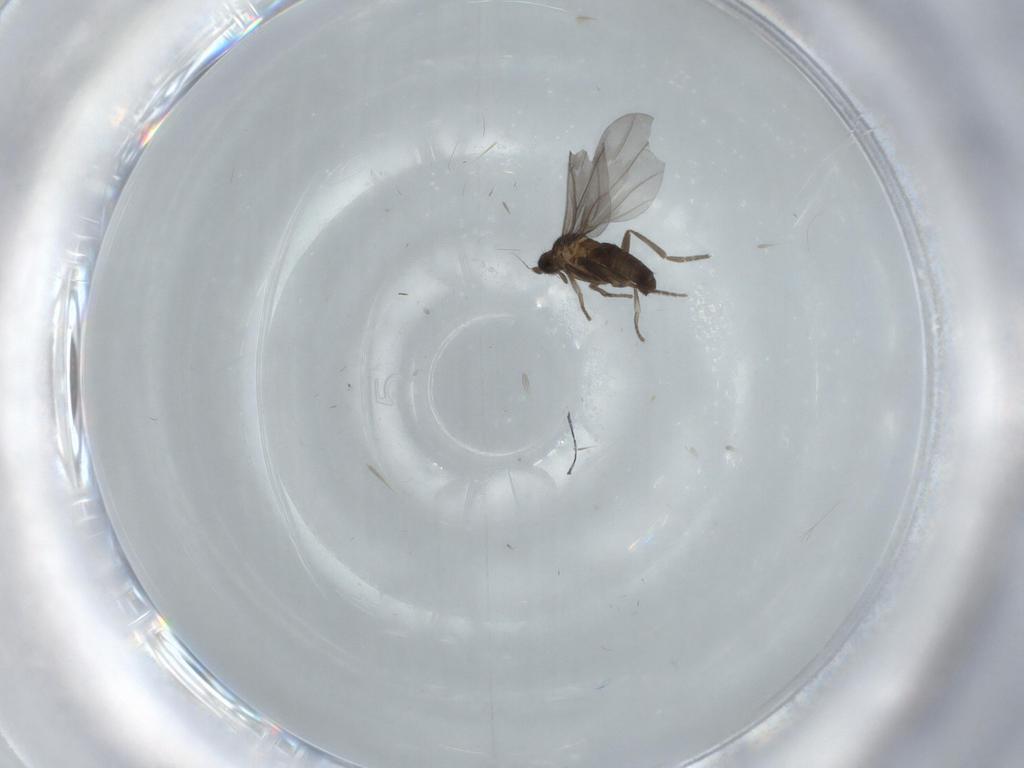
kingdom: Animalia
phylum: Arthropoda
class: Insecta
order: Diptera
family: Phoridae
